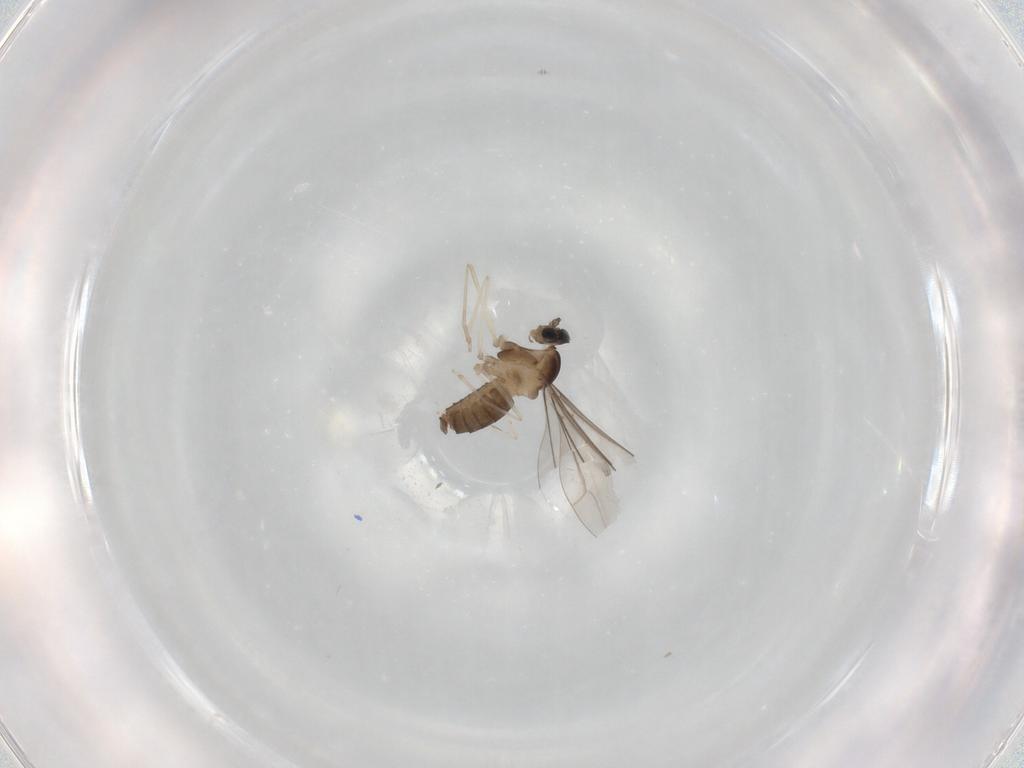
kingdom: Animalia
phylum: Arthropoda
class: Insecta
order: Diptera
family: Cecidomyiidae
